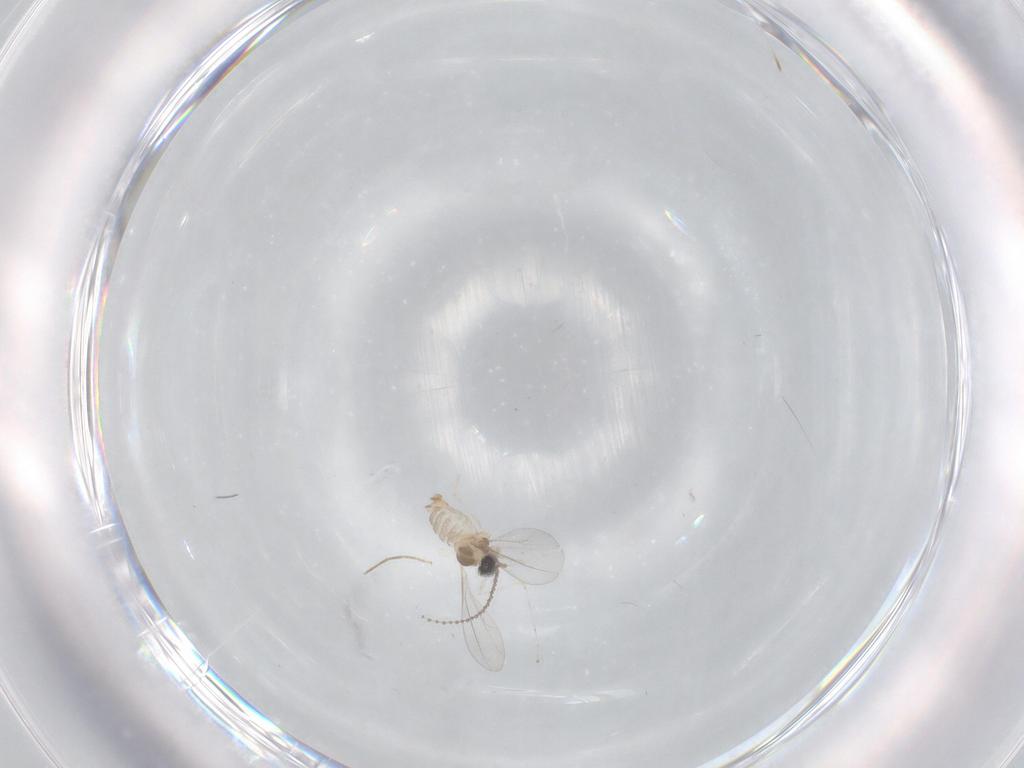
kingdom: Animalia
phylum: Arthropoda
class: Insecta
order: Diptera
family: Cecidomyiidae
